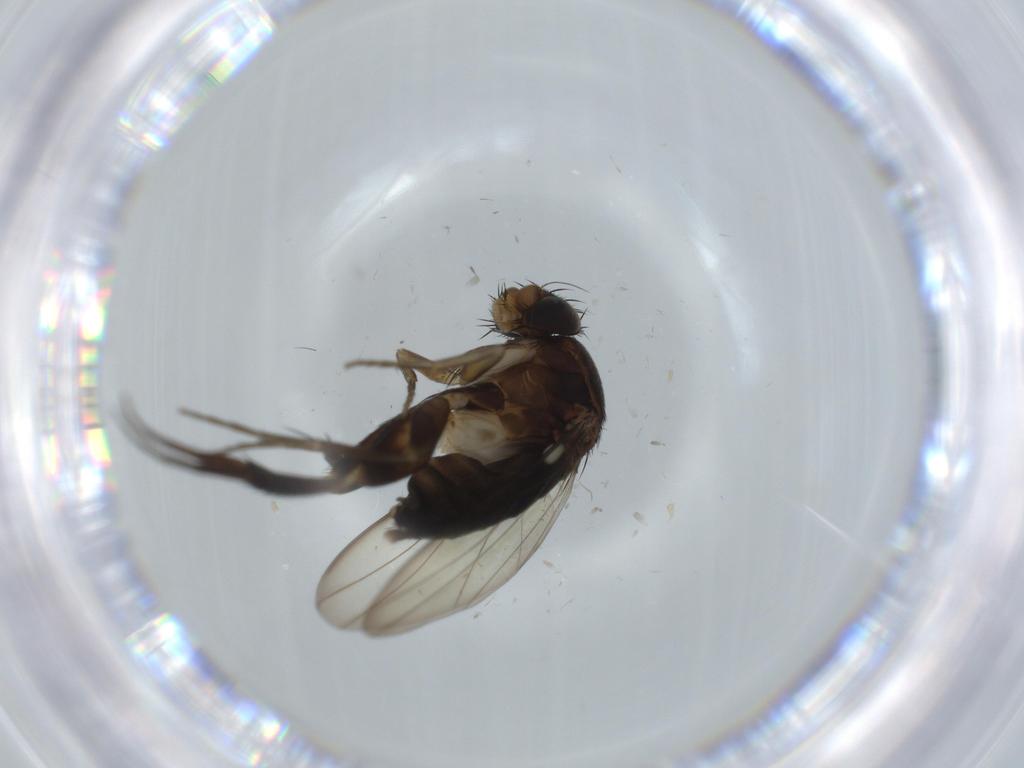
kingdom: Animalia
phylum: Arthropoda
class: Insecta
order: Diptera
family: Phoridae
